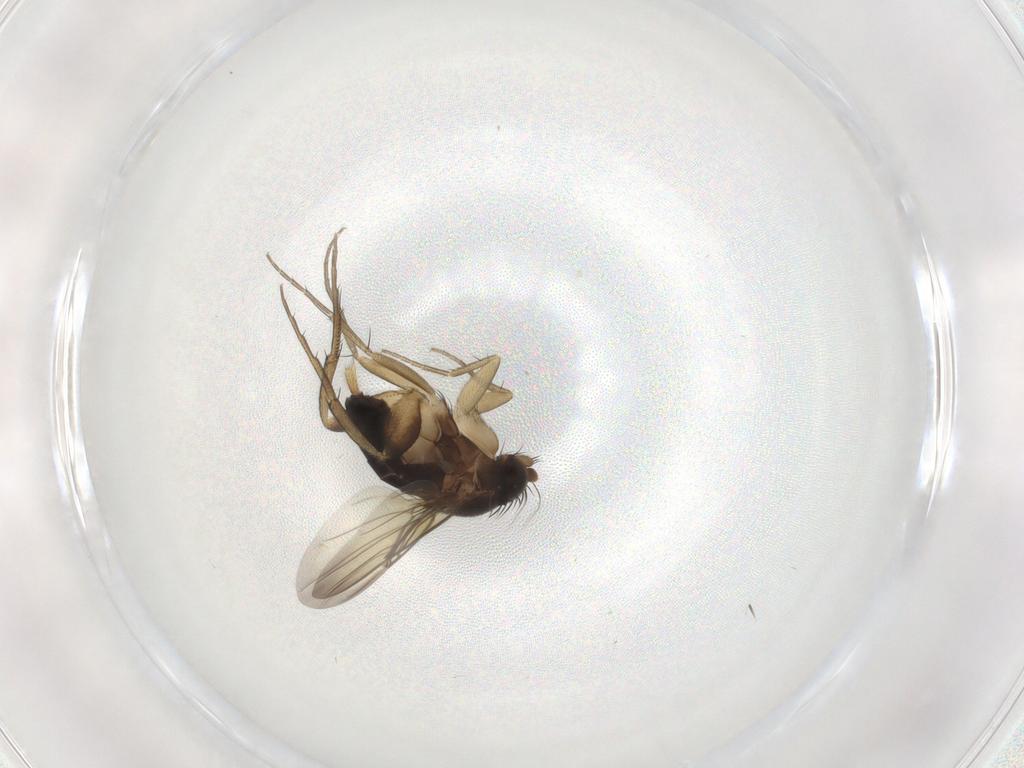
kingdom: Animalia
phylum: Arthropoda
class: Insecta
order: Diptera
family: Phoridae
